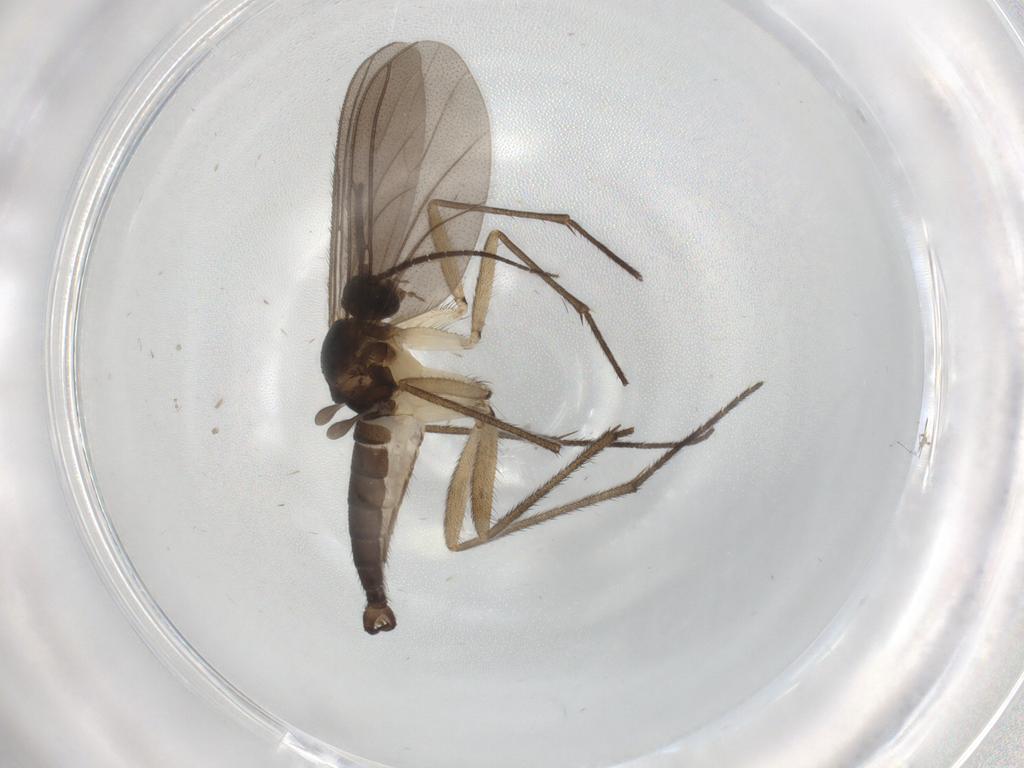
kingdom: Animalia
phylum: Arthropoda
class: Insecta
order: Diptera
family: Sciaridae
